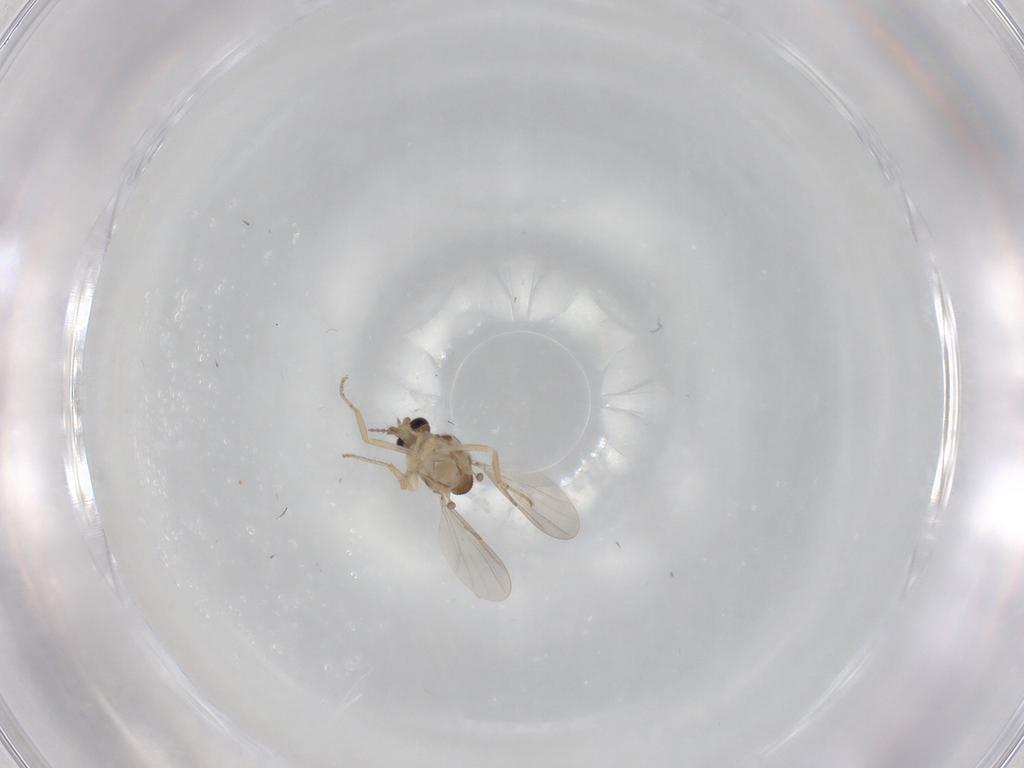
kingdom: Animalia
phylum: Arthropoda
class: Insecta
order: Diptera
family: Ceratopogonidae
